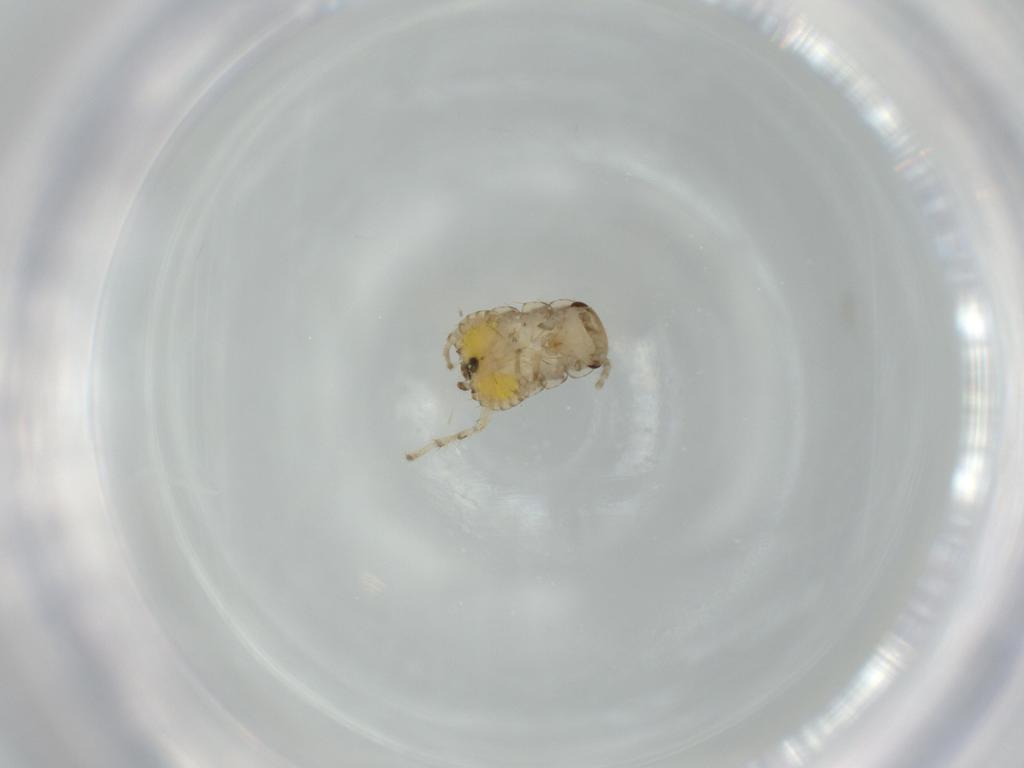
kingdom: Animalia
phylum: Arthropoda
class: Insecta
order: Blattodea
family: Ectobiidae
